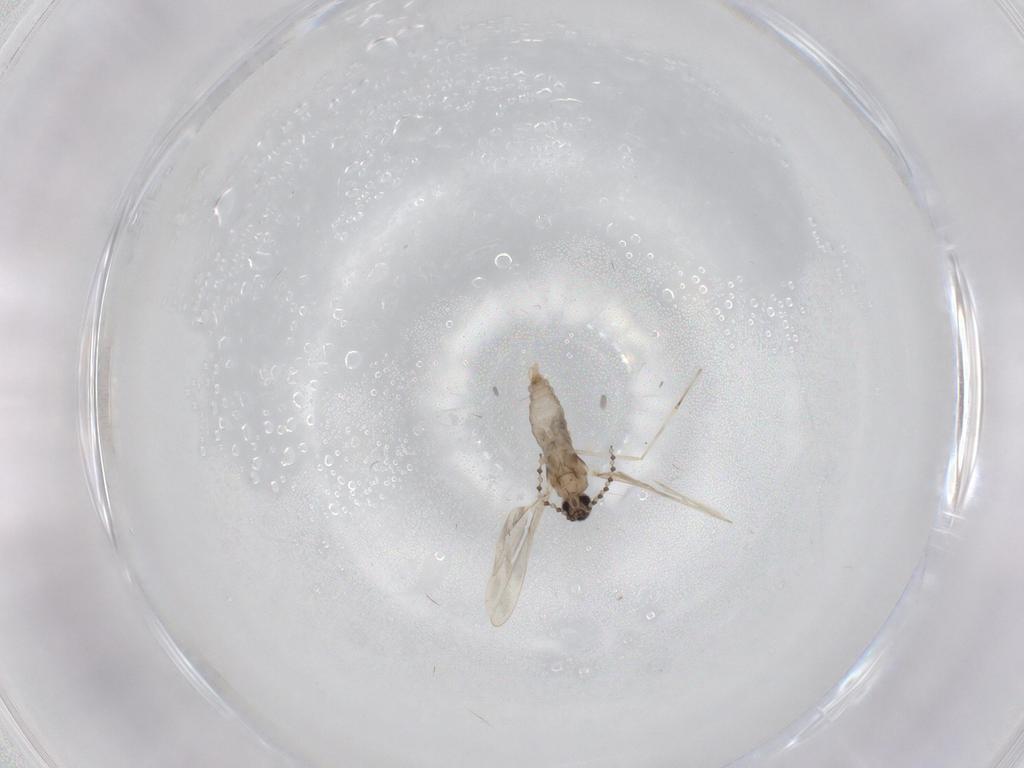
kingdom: Animalia
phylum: Arthropoda
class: Insecta
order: Diptera
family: Cecidomyiidae
